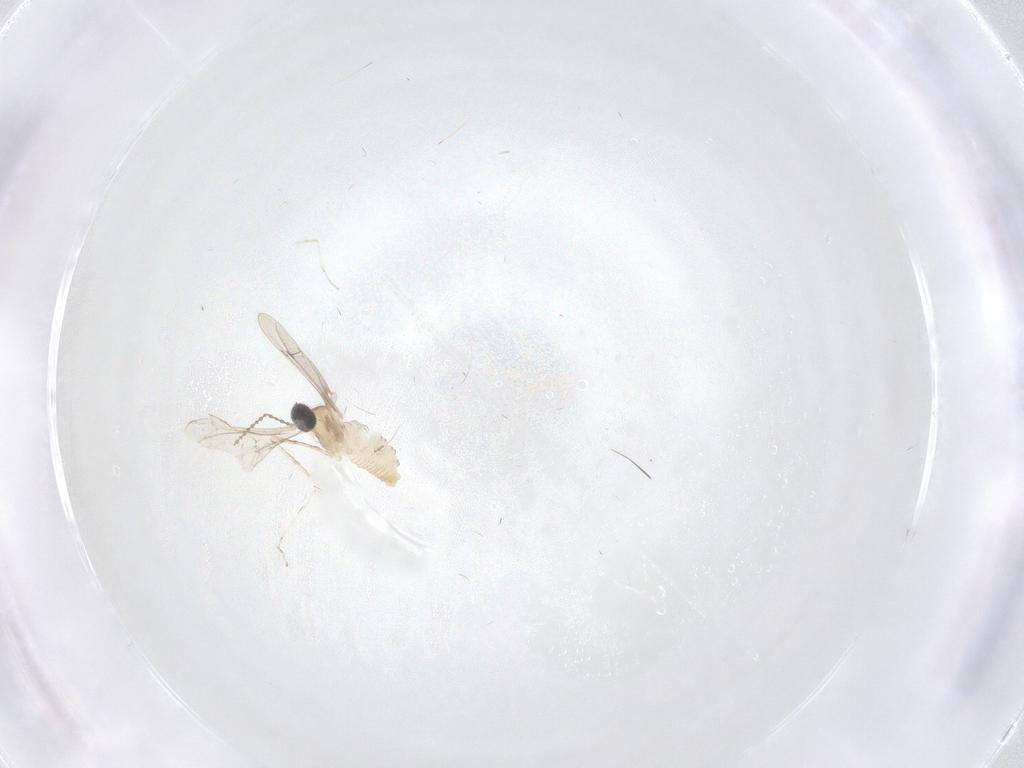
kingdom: Animalia
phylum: Arthropoda
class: Insecta
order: Diptera
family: Cecidomyiidae
